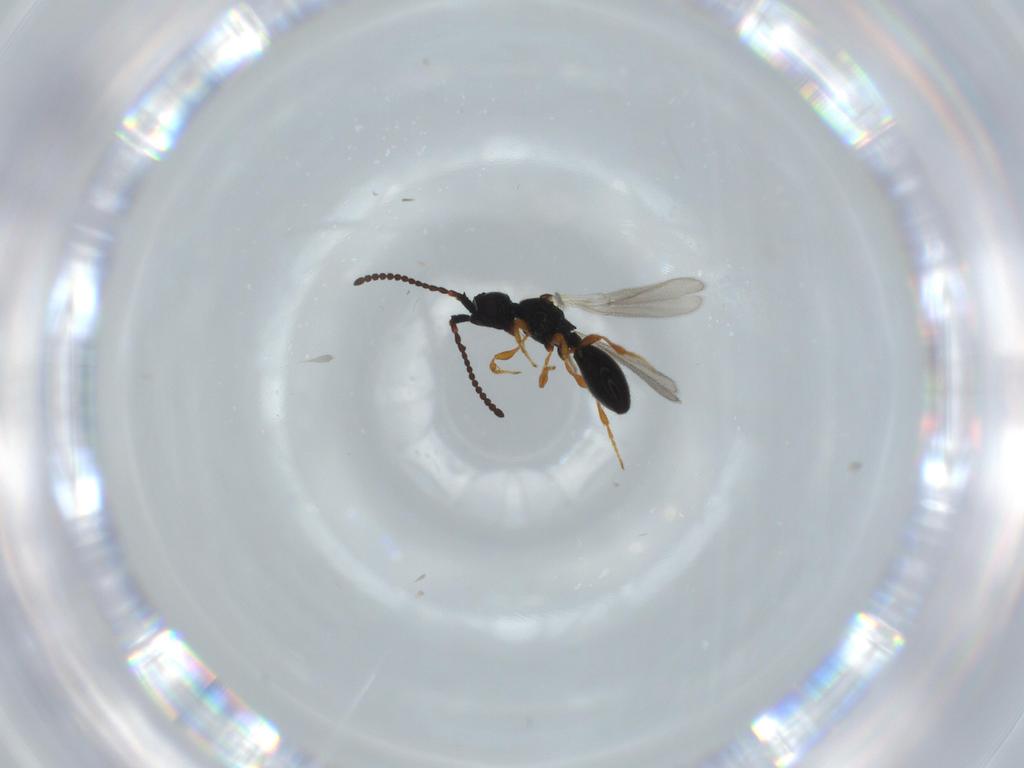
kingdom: Animalia
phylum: Arthropoda
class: Insecta
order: Hymenoptera
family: Diapriidae
